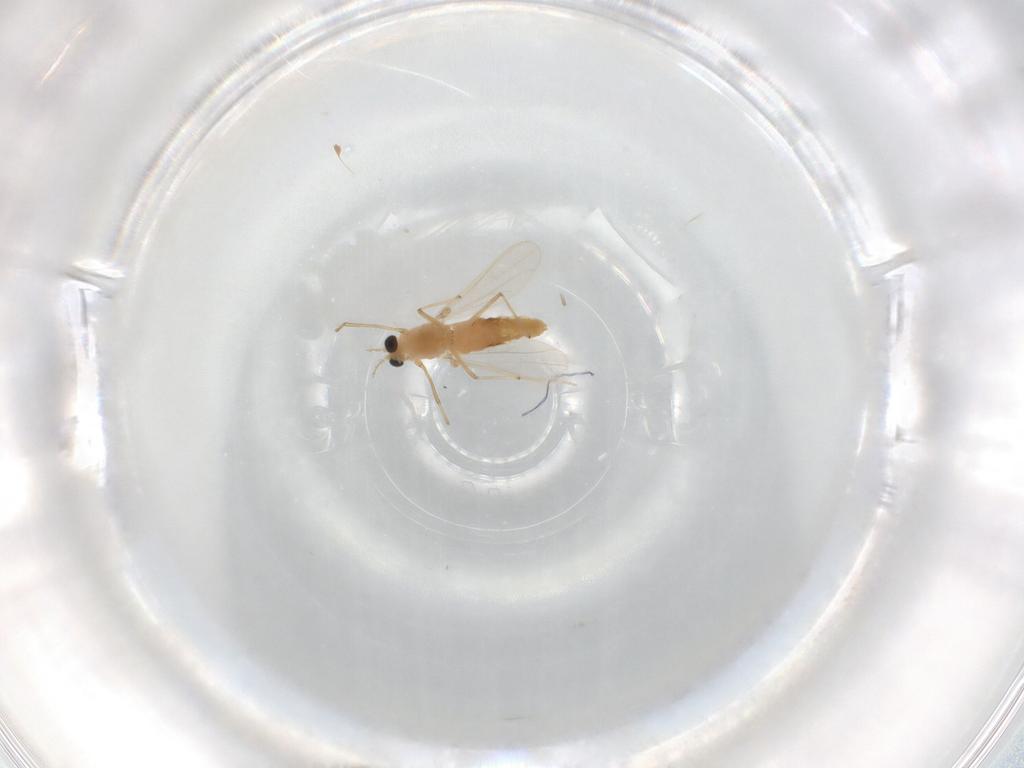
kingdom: Animalia
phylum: Arthropoda
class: Insecta
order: Diptera
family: Chironomidae
